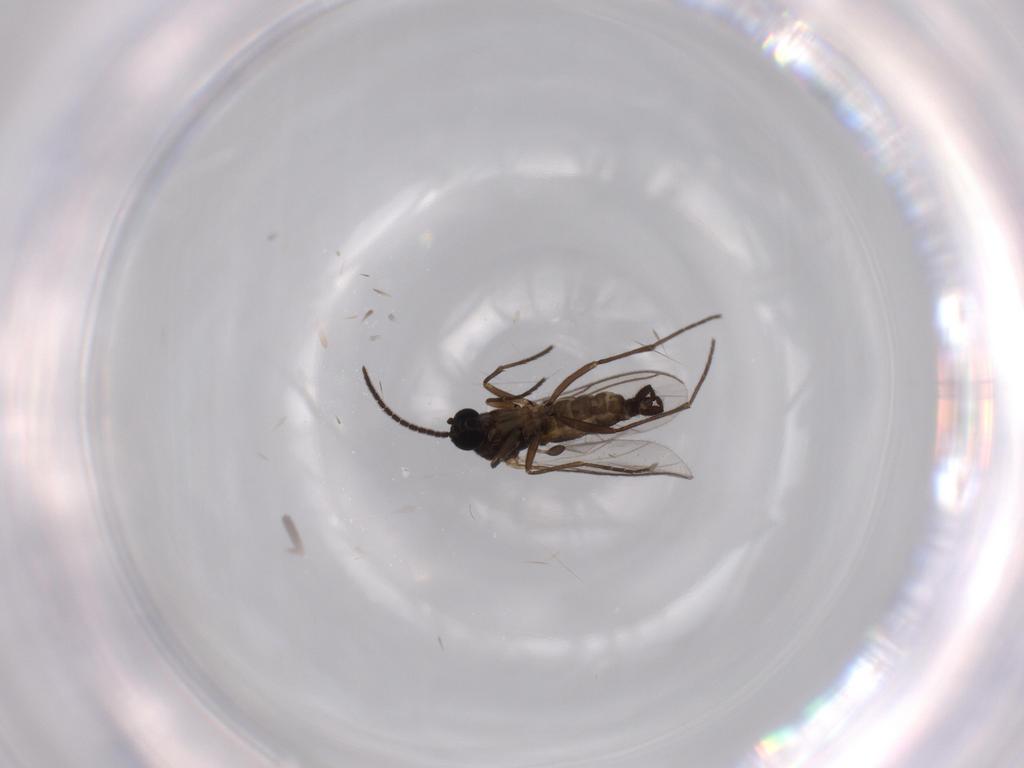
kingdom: Animalia
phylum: Arthropoda
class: Insecta
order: Diptera
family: Sciaridae
